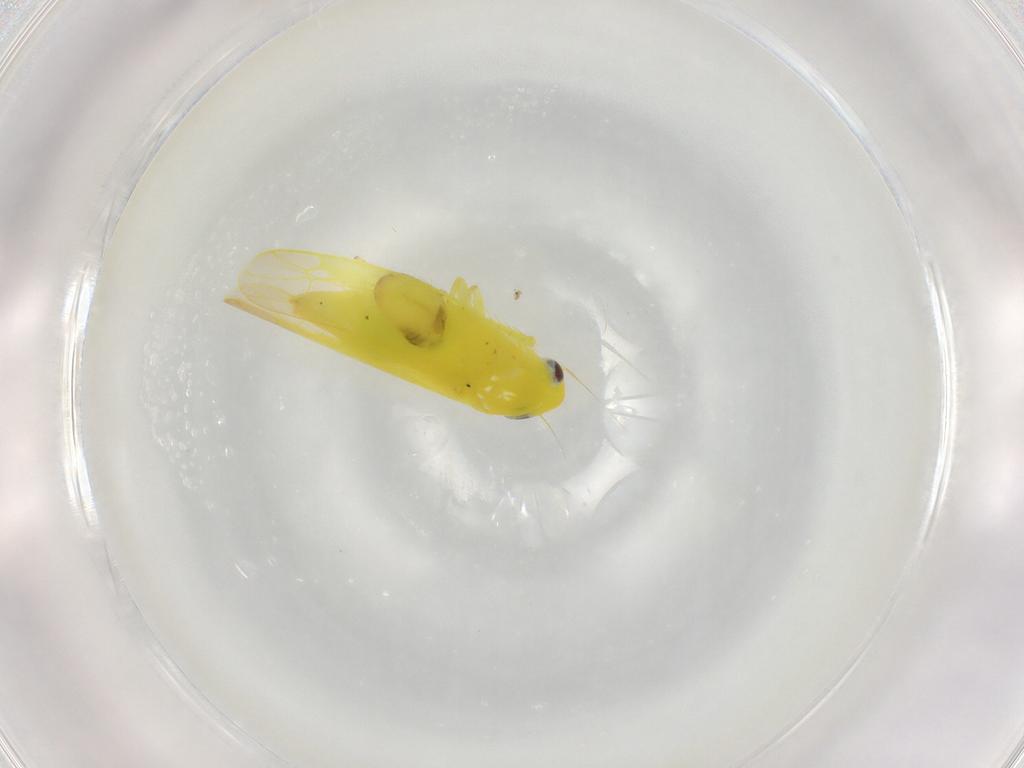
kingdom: Animalia
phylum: Arthropoda
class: Insecta
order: Hemiptera
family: Cicadellidae
